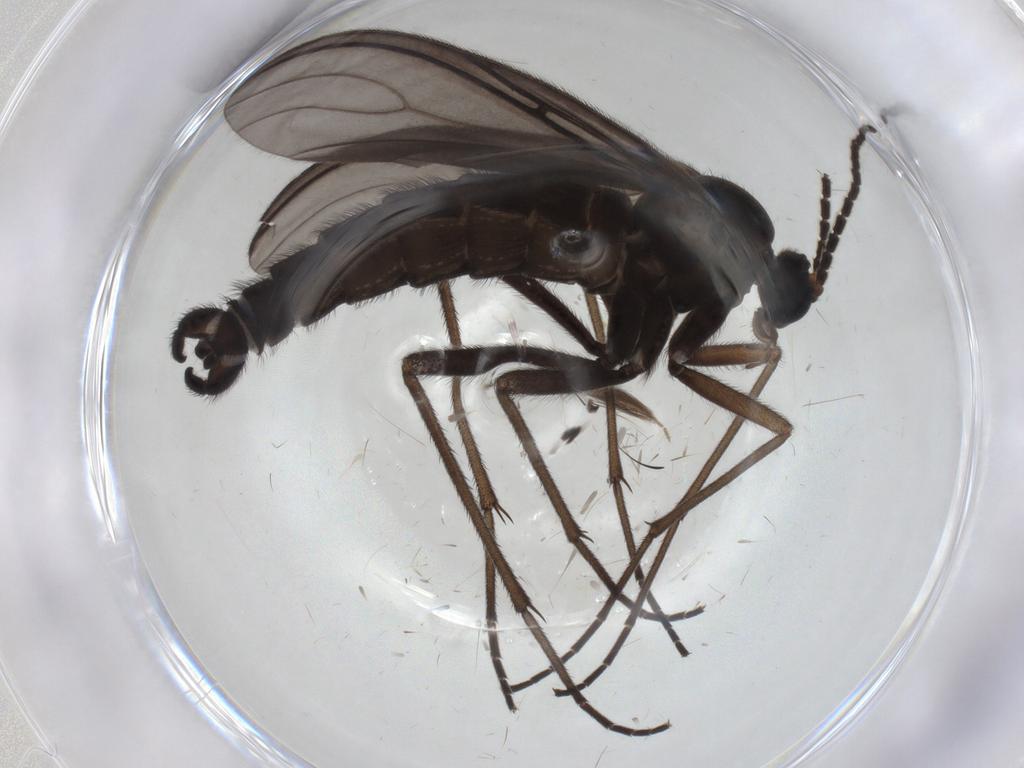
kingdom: Animalia
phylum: Arthropoda
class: Insecta
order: Diptera
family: Ceratopogonidae
